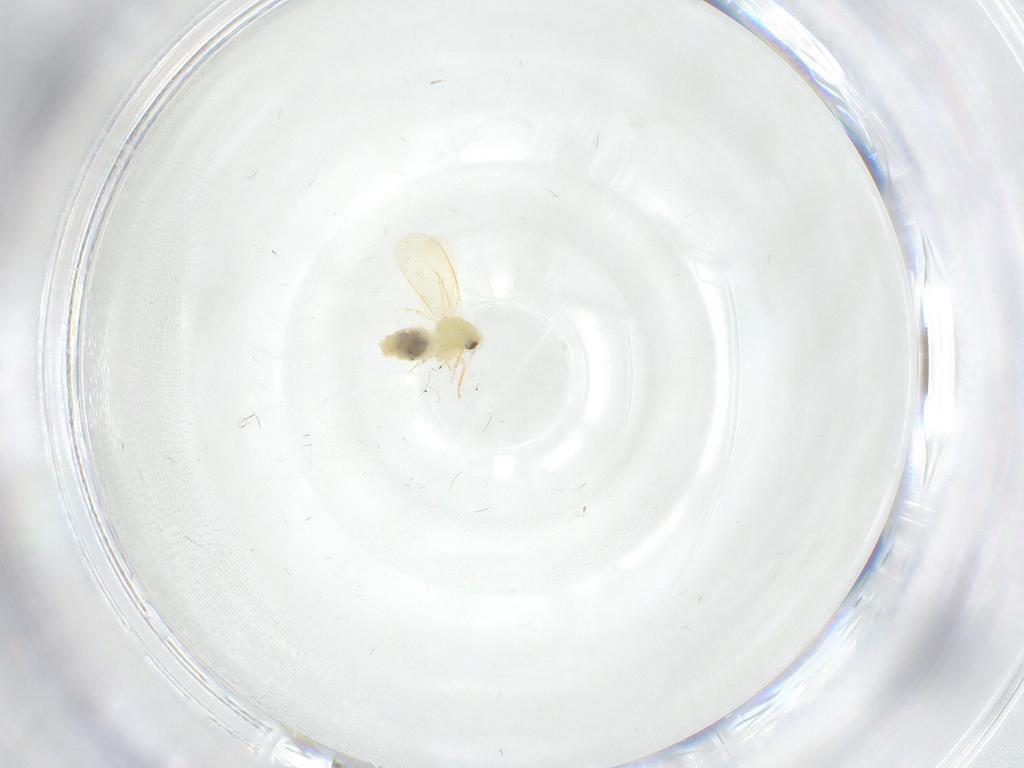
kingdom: Animalia
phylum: Arthropoda
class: Insecta
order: Hemiptera
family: Aleyrodidae
